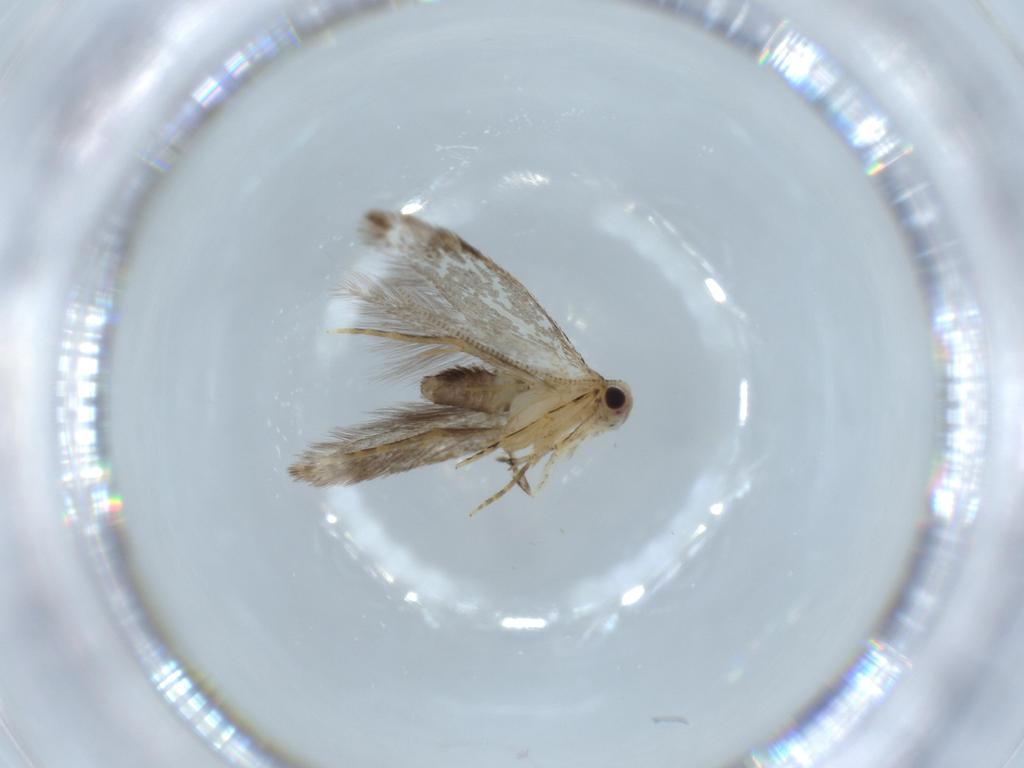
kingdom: Animalia
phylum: Arthropoda
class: Insecta
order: Lepidoptera
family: Tineidae
